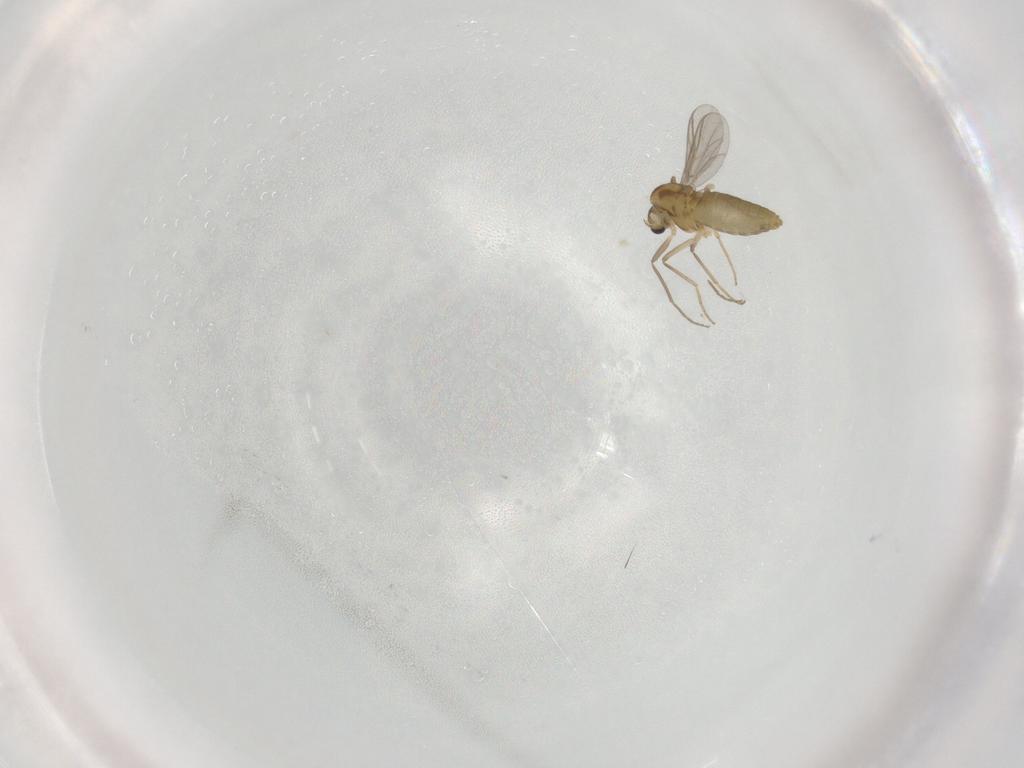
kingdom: Animalia
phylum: Arthropoda
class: Insecta
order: Diptera
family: Chironomidae
